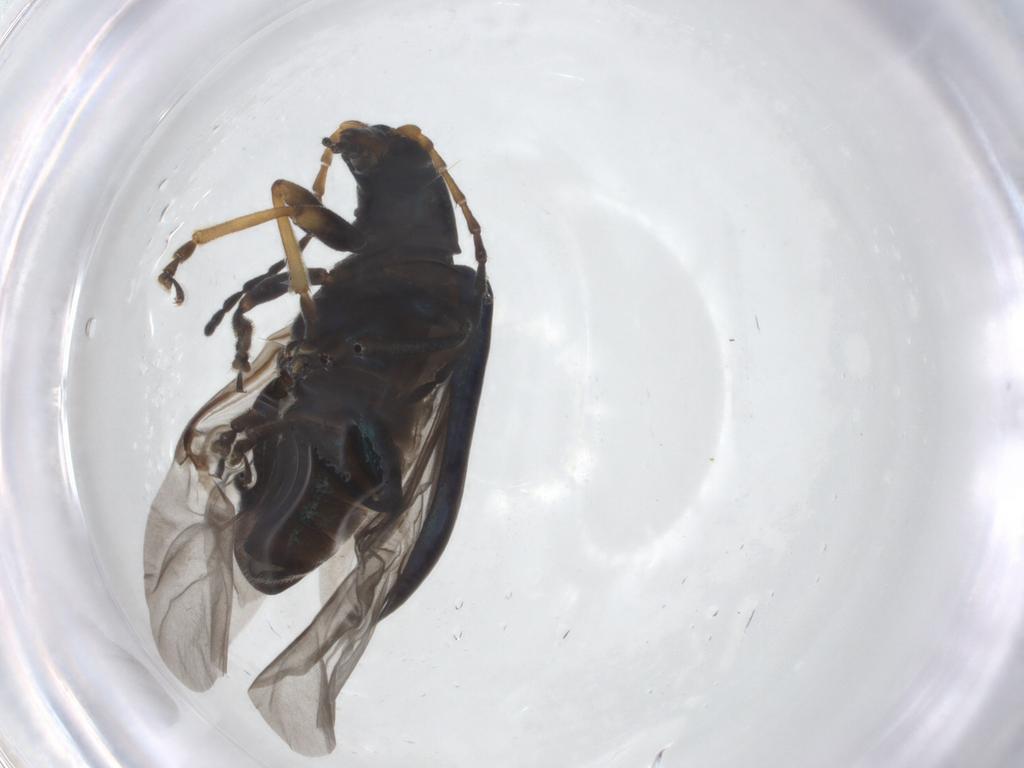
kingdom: Animalia
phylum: Arthropoda
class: Insecta
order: Coleoptera
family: Chrysomelidae
